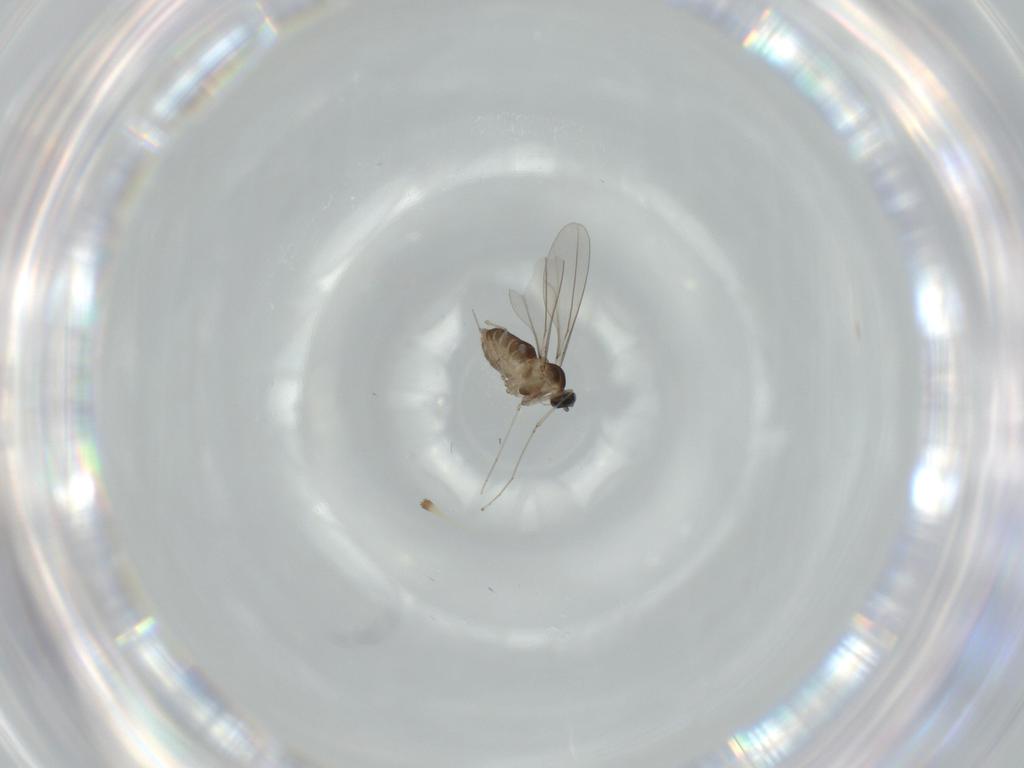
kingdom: Animalia
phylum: Arthropoda
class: Insecta
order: Diptera
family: Cecidomyiidae
